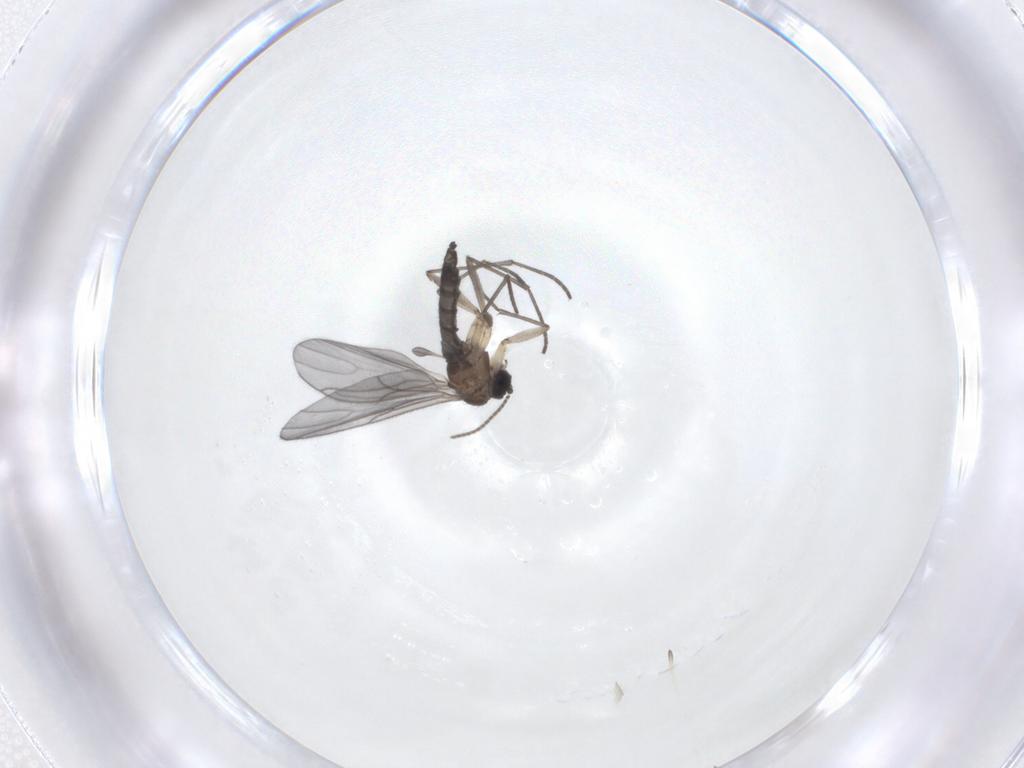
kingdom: Animalia
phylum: Arthropoda
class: Insecta
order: Diptera
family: Sciaridae
